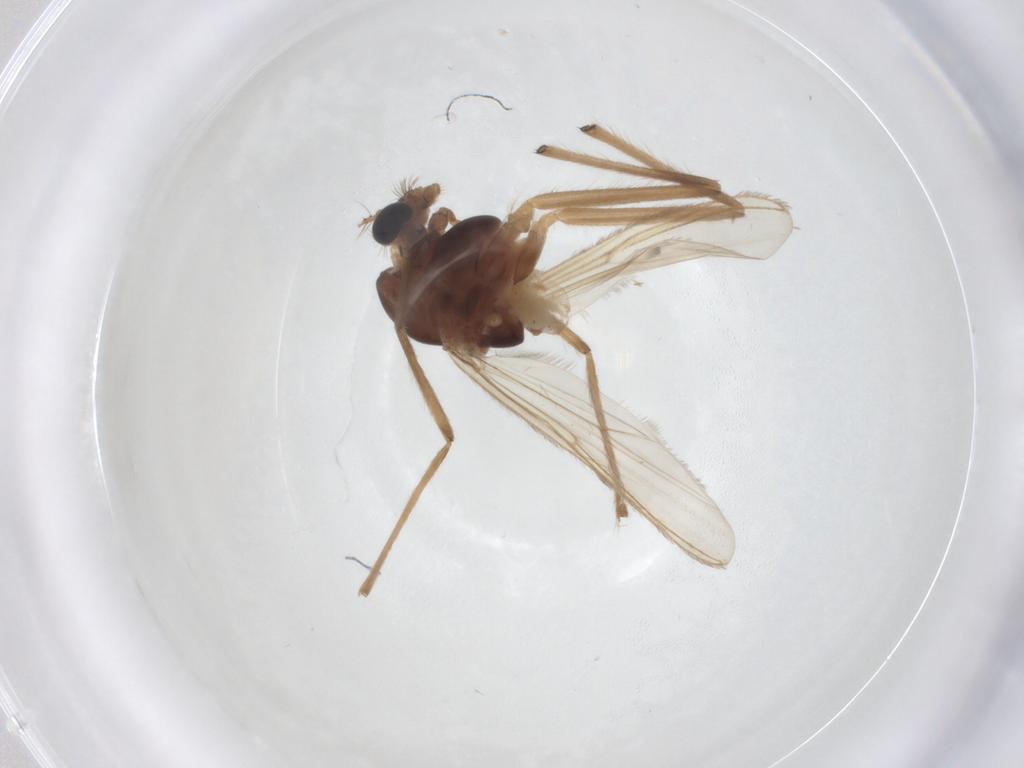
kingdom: Animalia
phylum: Arthropoda
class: Insecta
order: Diptera
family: Chironomidae
